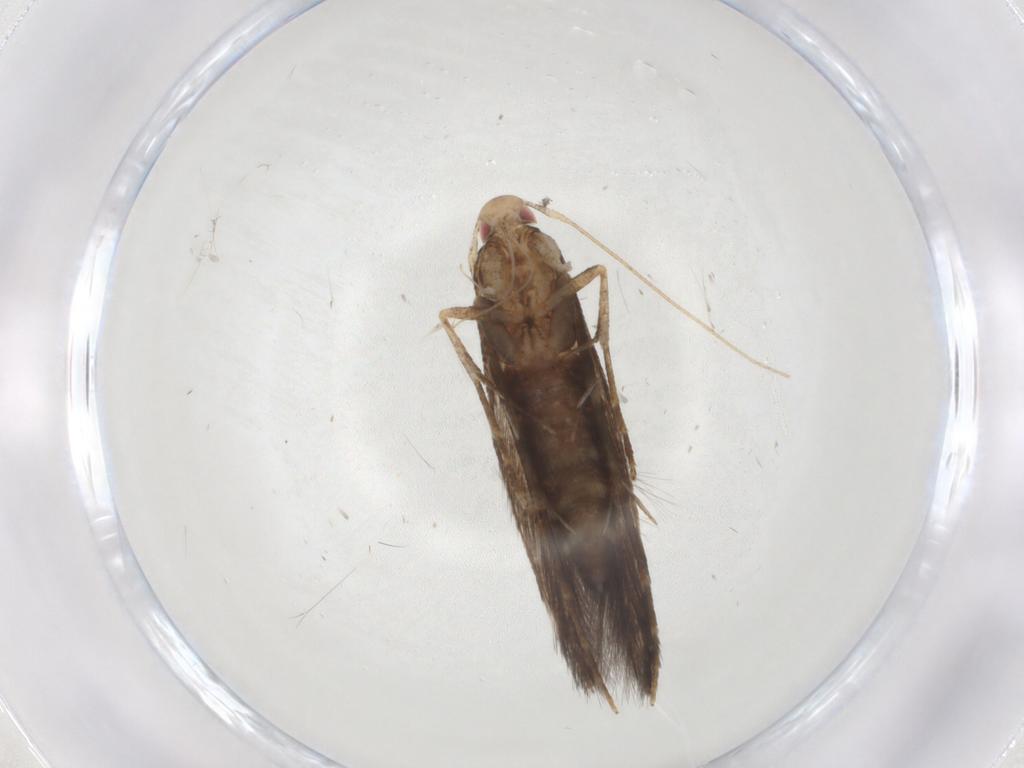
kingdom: Animalia
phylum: Arthropoda
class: Insecta
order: Lepidoptera
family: Cosmopterigidae
